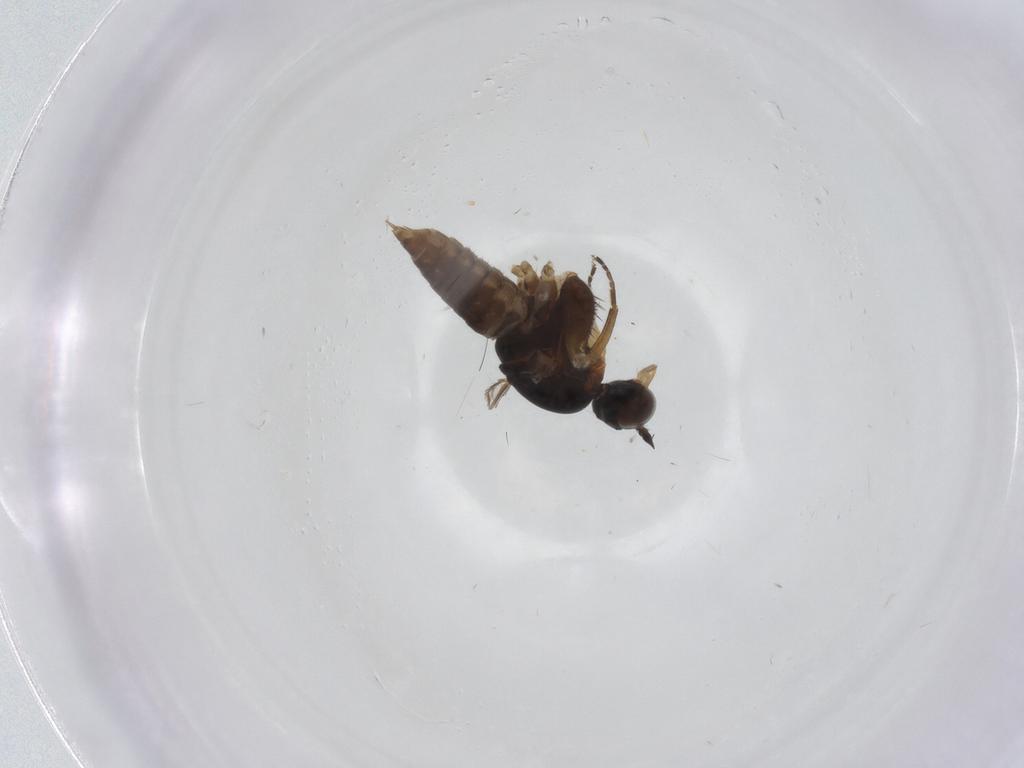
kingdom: Animalia
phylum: Arthropoda
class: Insecta
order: Diptera
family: Empididae
